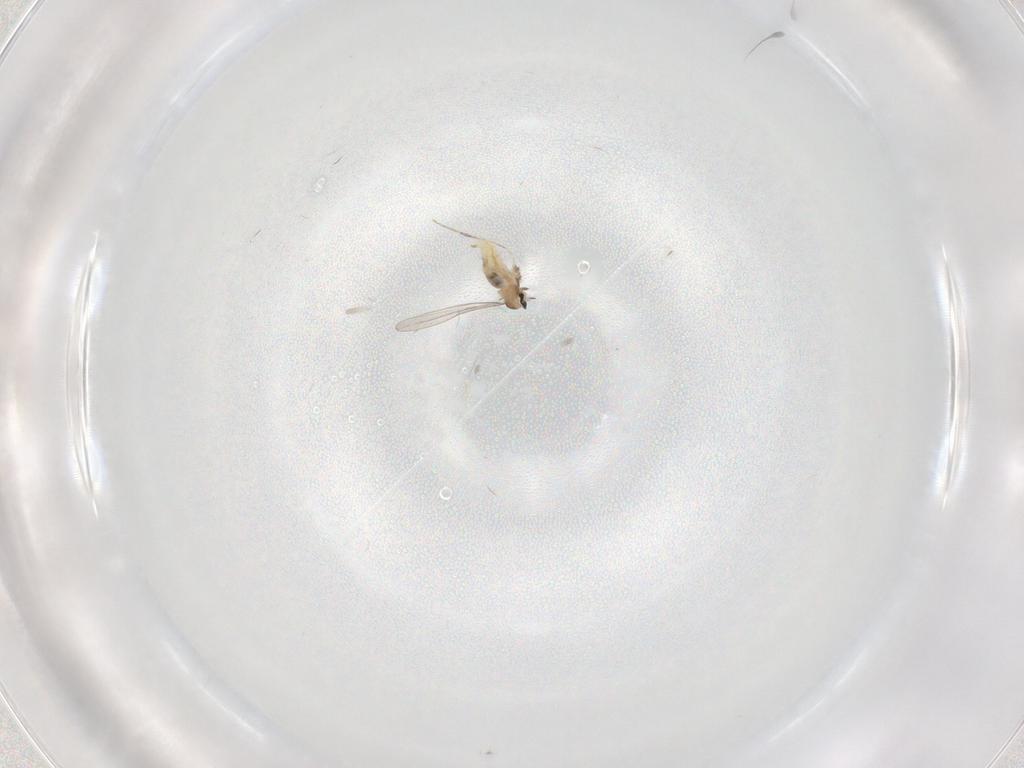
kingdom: Animalia
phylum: Arthropoda
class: Insecta
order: Diptera
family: Cecidomyiidae
